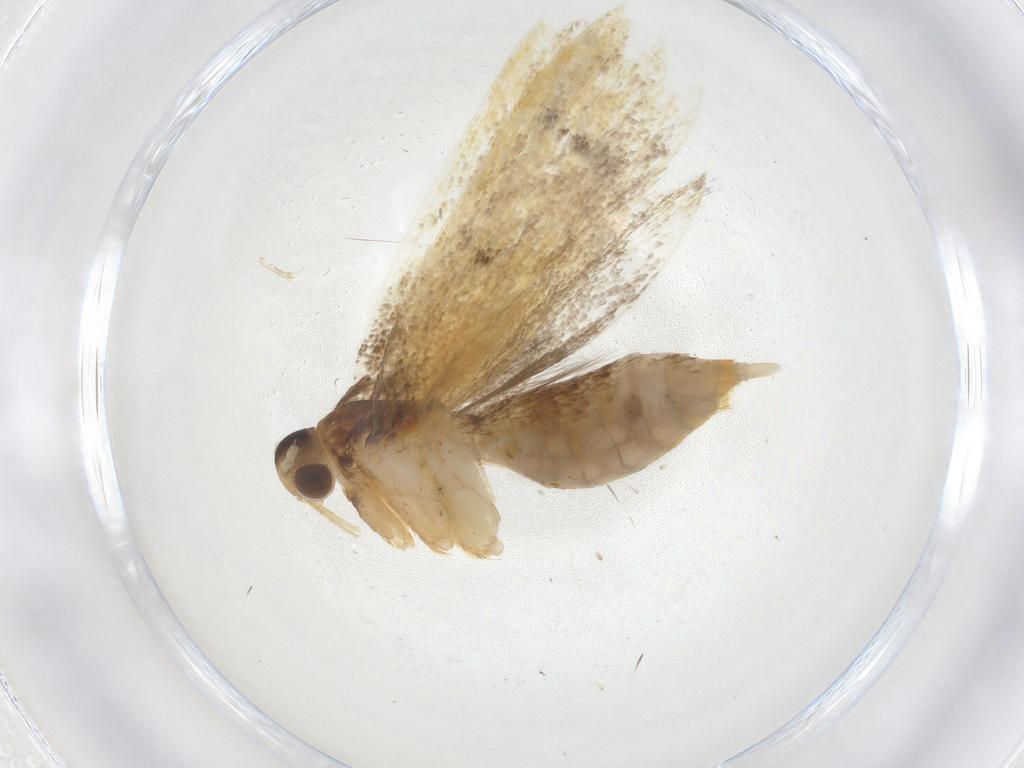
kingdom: Animalia
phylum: Arthropoda
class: Insecta
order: Lepidoptera
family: Lecithoceridae
